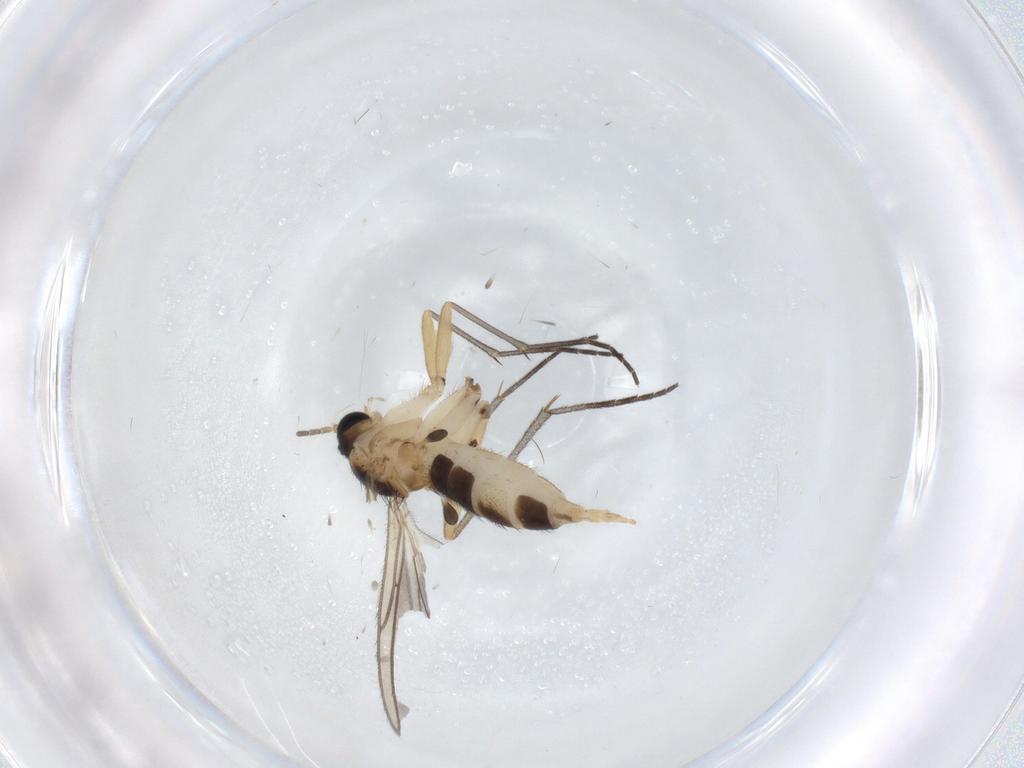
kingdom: Animalia
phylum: Arthropoda
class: Insecta
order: Diptera
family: Sciaridae
